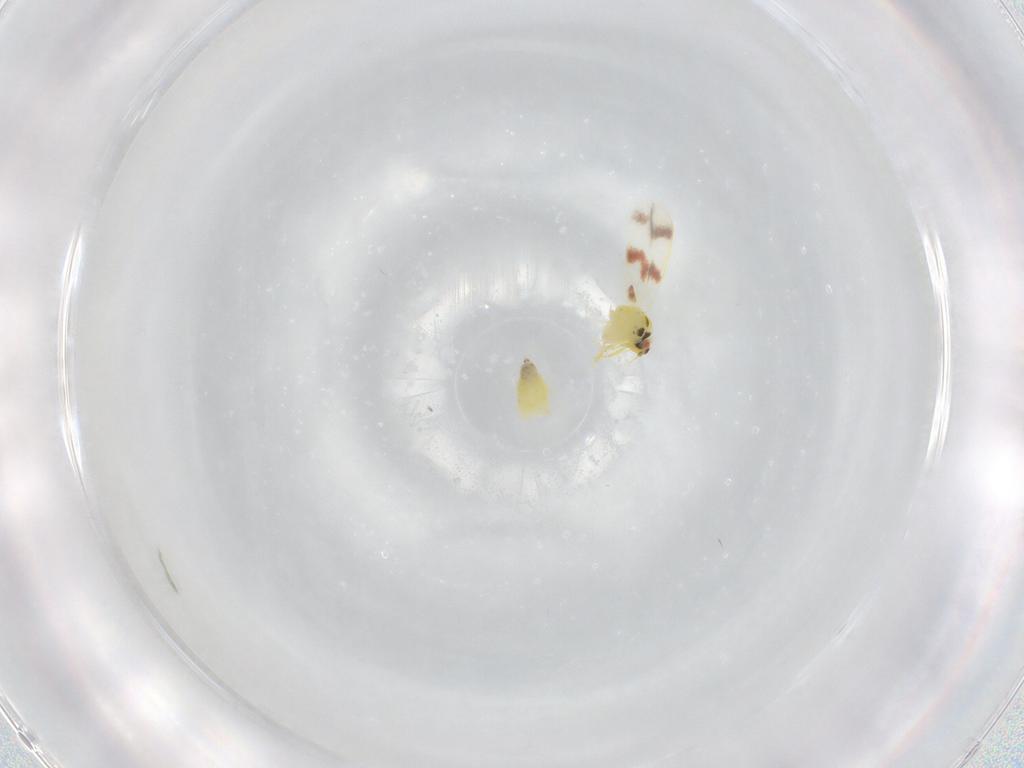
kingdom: Animalia
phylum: Arthropoda
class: Insecta
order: Hemiptera
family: Aleyrodidae
